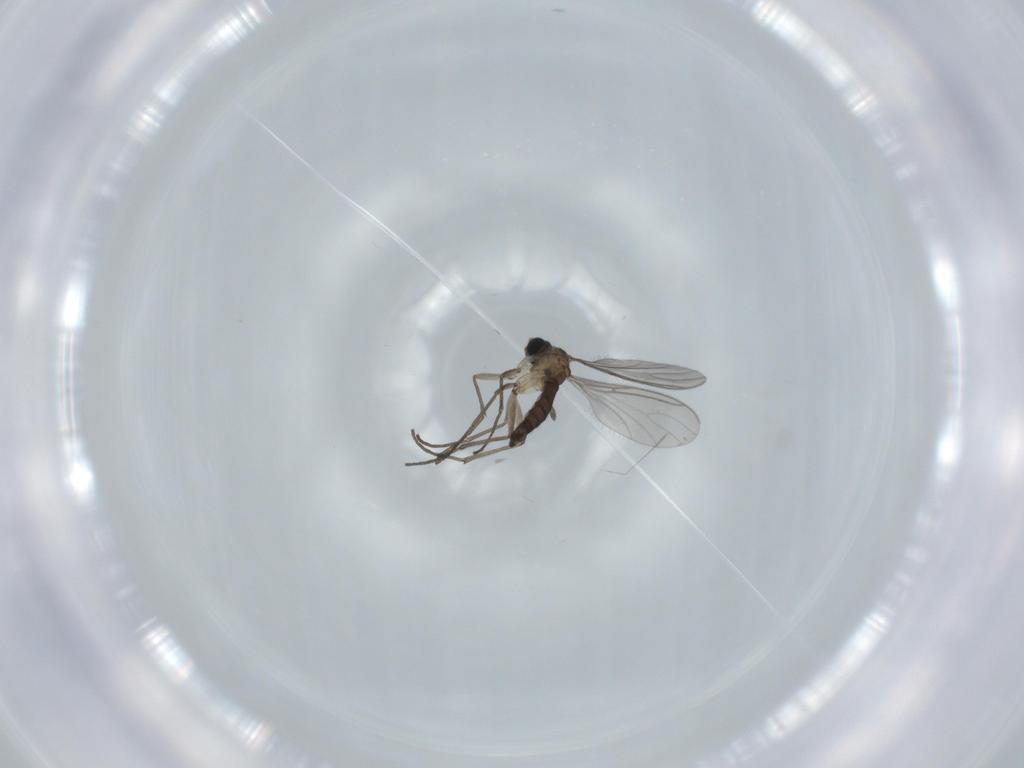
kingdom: Animalia
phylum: Arthropoda
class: Insecta
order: Diptera
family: Sciaridae
